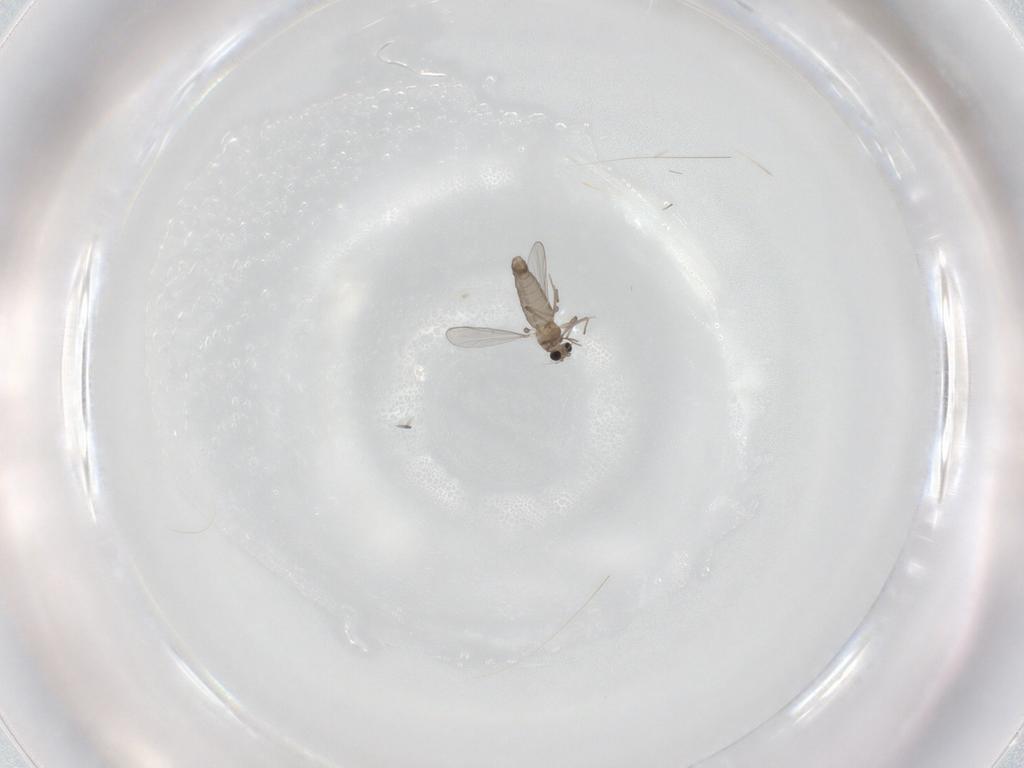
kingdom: Animalia
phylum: Arthropoda
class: Insecta
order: Diptera
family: Chironomidae
